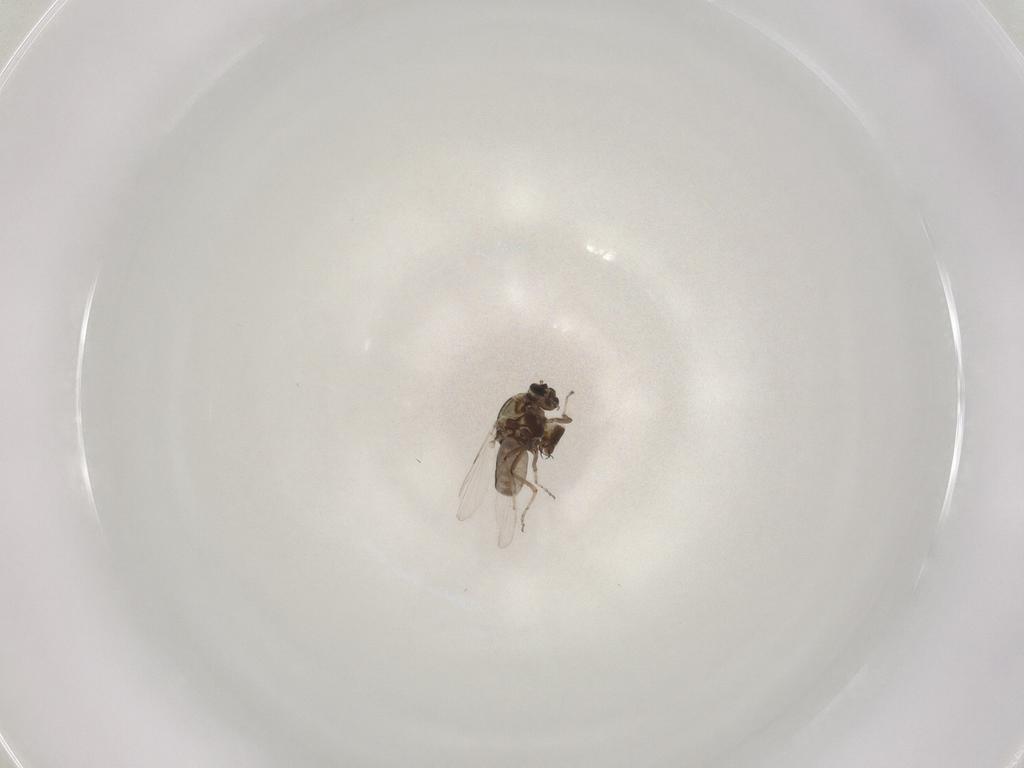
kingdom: Animalia
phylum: Arthropoda
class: Insecta
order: Diptera
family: Ceratopogonidae
